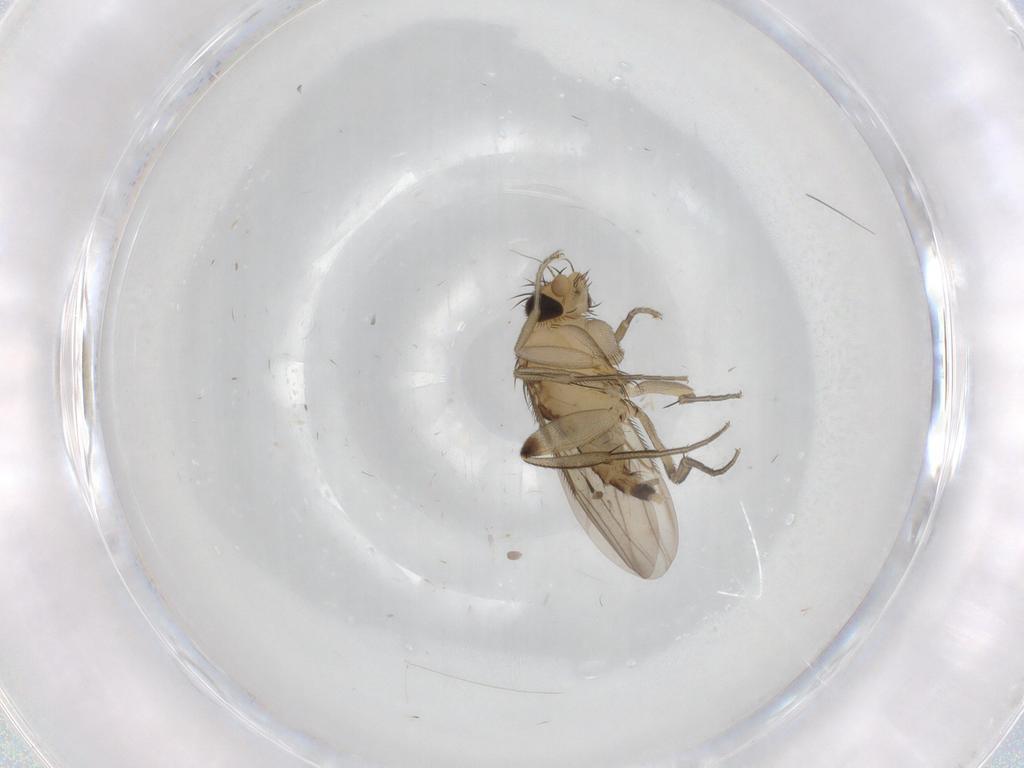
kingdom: Animalia
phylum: Arthropoda
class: Insecta
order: Diptera
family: Phoridae
